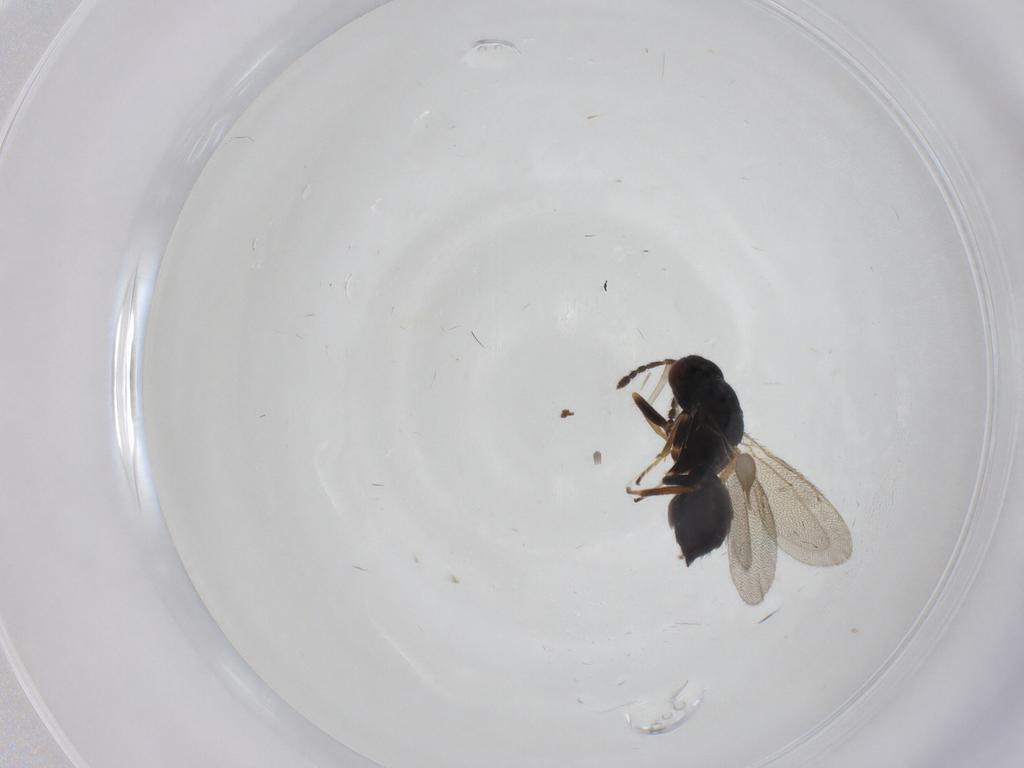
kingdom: Animalia
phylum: Arthropoda
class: Insecta
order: Hymenoptera
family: Eulophidae
